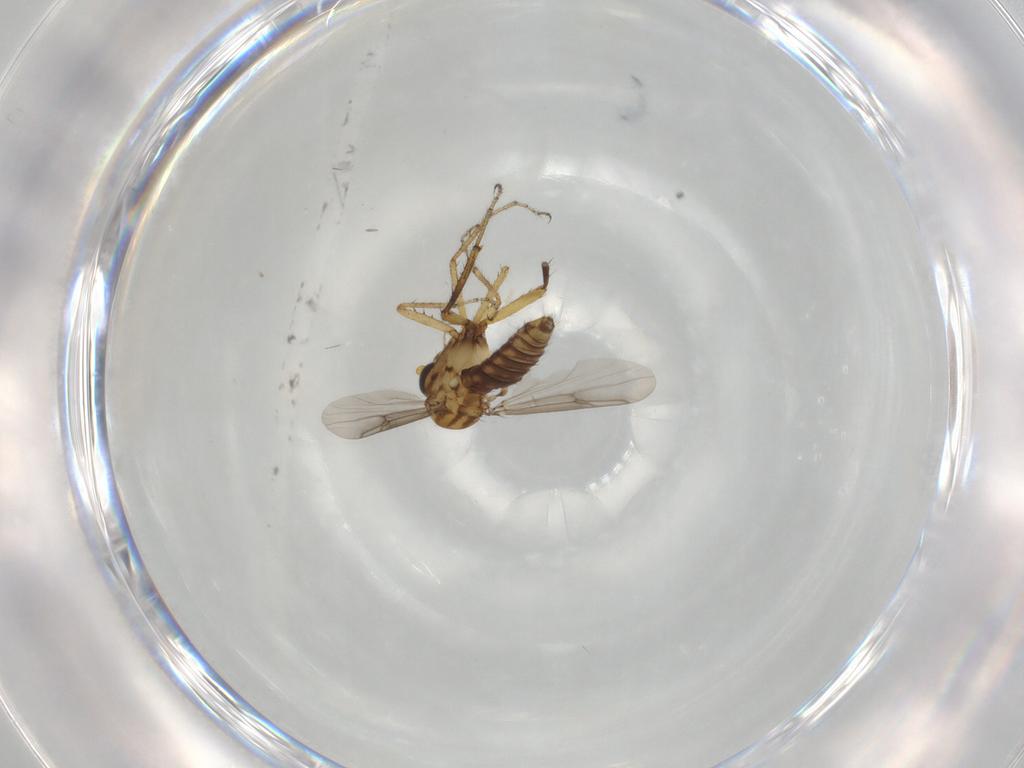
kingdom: Animalia
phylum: Arthropoda
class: Insecta
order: Diptera
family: Ceratopogonidae
